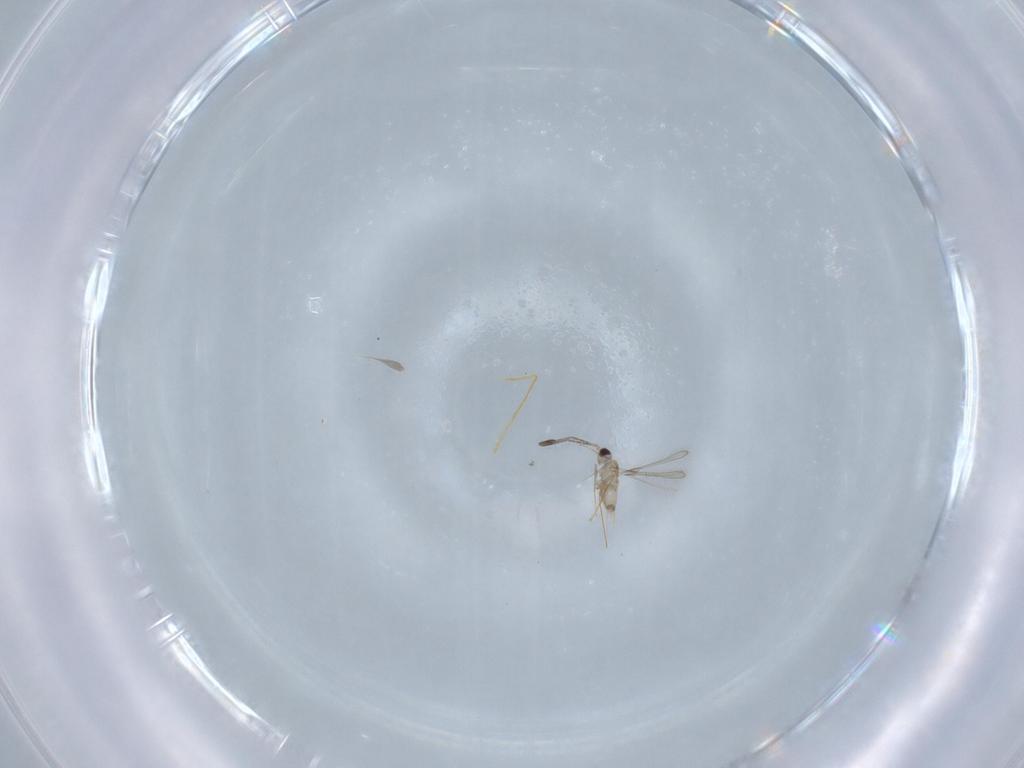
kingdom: Animalia
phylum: Arthropoda
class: Insecta
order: Hymenoptera
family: Mymaridae
